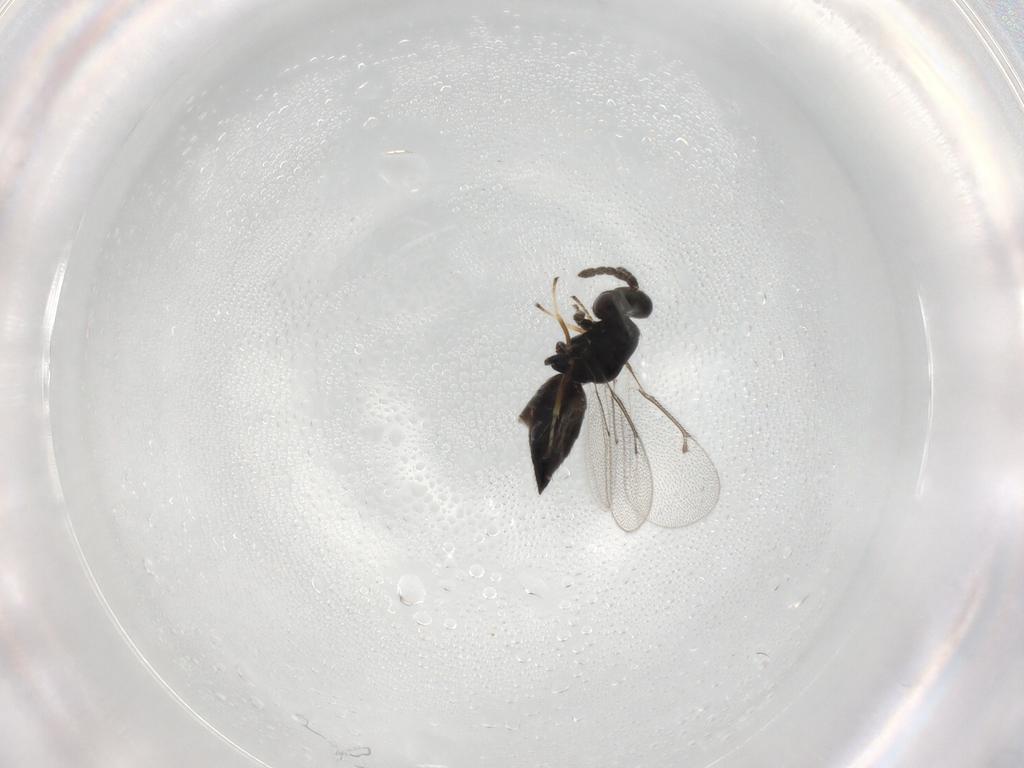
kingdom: Animalia
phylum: Arthropoda
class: Insecta
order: Hymenoptera
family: Eulophidae
